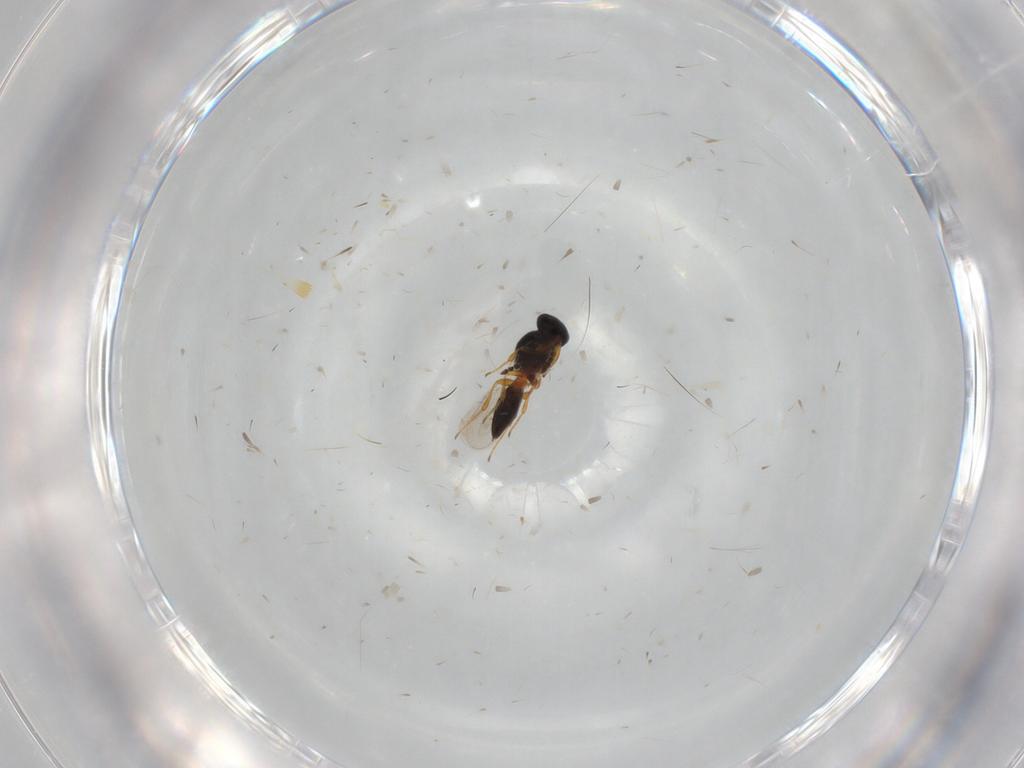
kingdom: Animalia
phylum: Arthropoda
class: Insecta
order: Hymenoptera
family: Platygastridae
